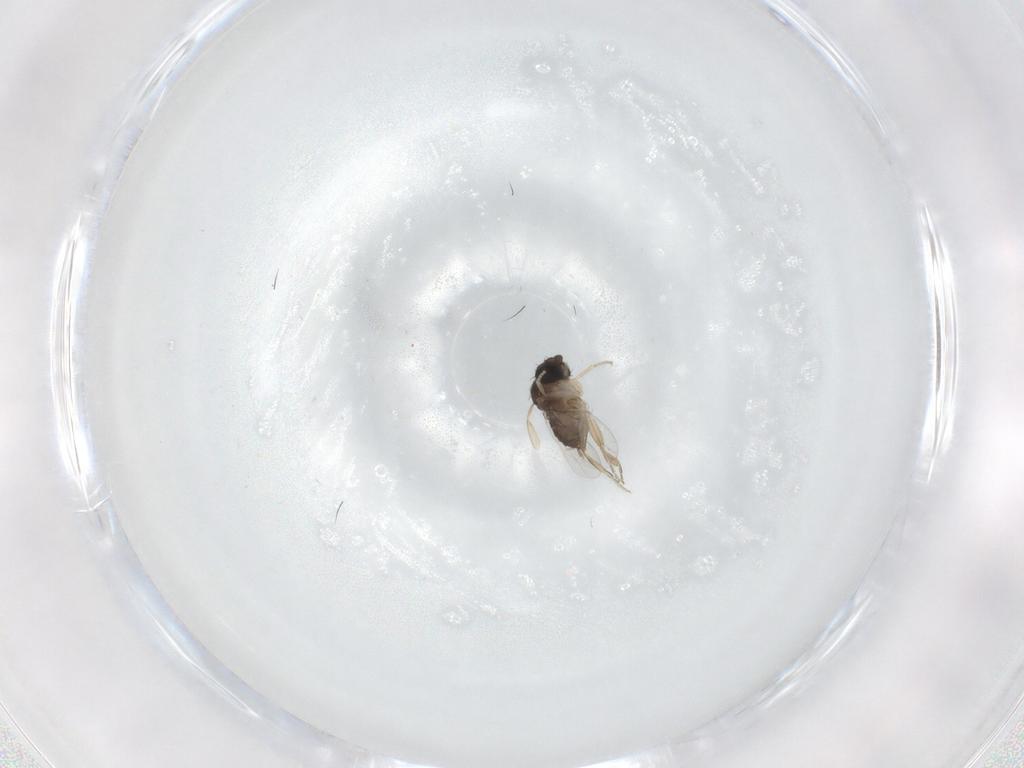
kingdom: Animalia
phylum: Arthropoda
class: Insecta
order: Diptera
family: Phoridae
